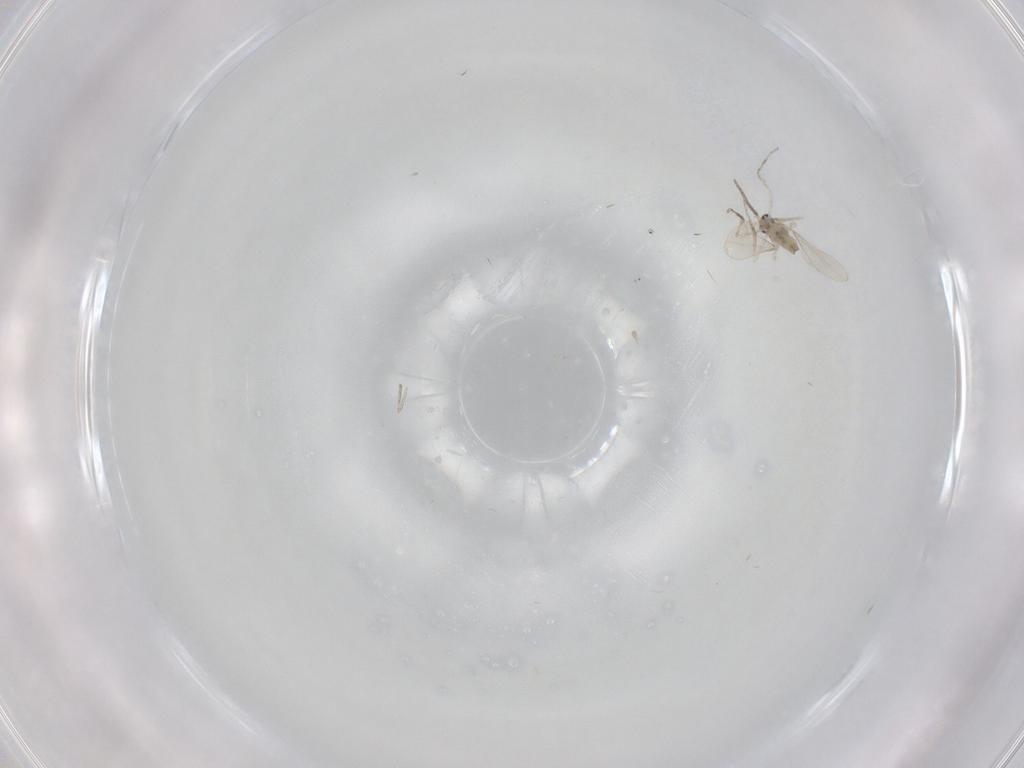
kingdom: Animalia
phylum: Arthropoda
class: Insecta
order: Diptera
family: Cecidomyiidae
